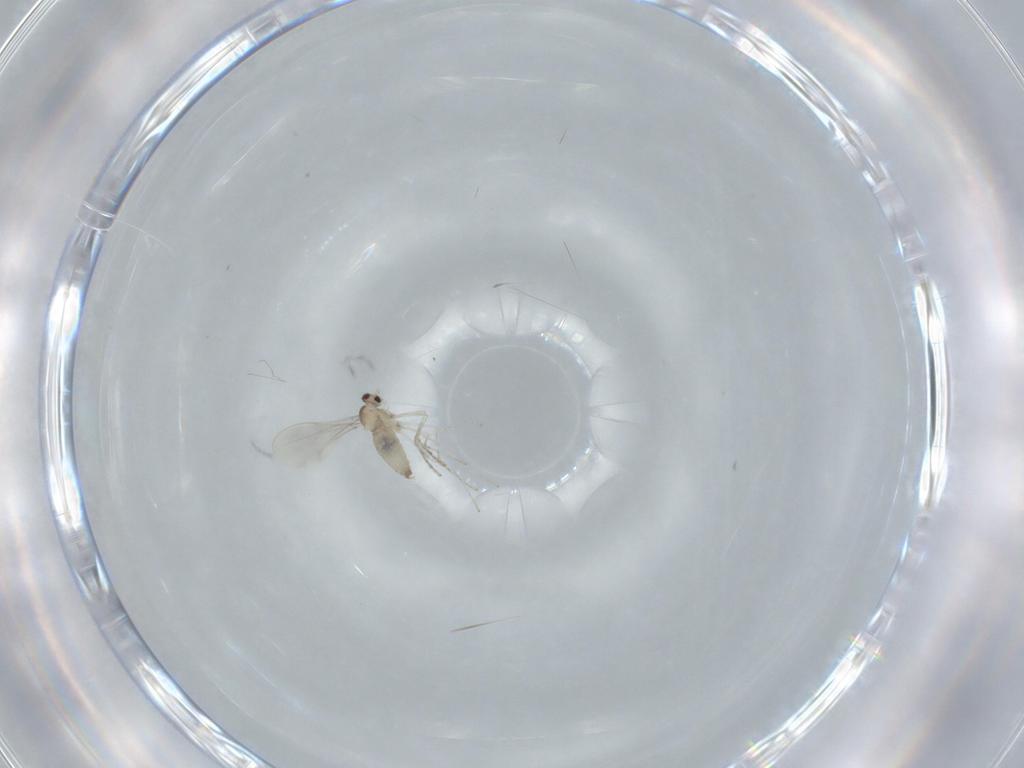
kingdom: Animalia
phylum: Arthropoda
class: Insecta
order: Diptera
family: Cecidomyiidae
